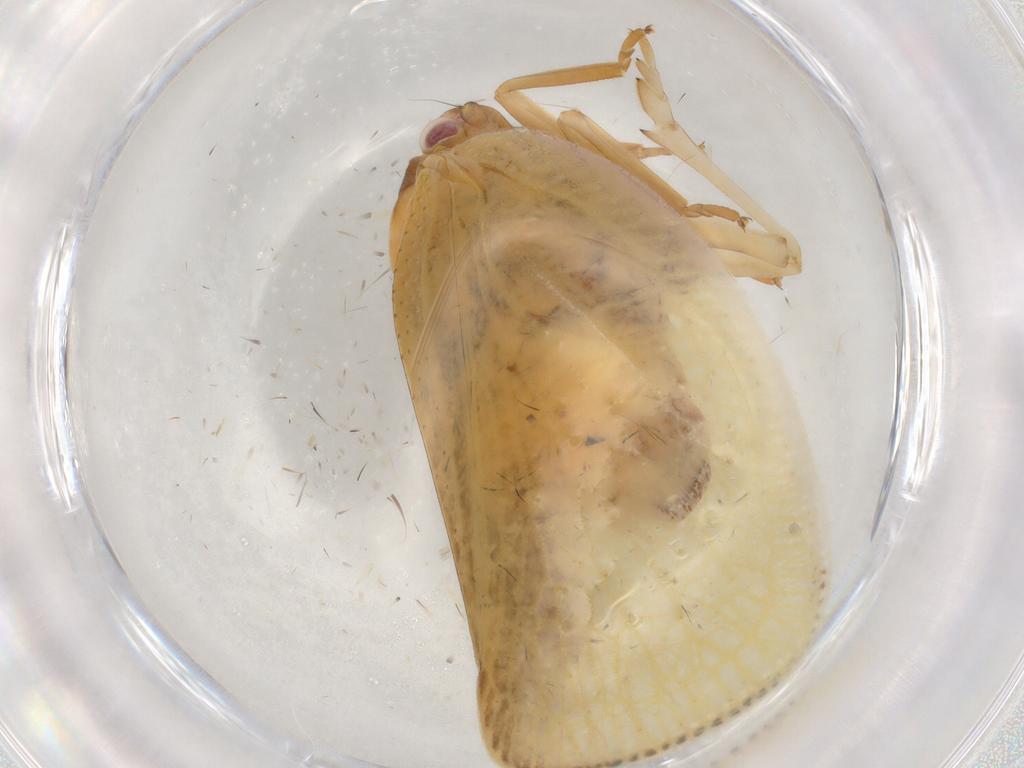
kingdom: Animalia
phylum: Arthropoda
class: Insecta
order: Hemiptera
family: Flatidae
